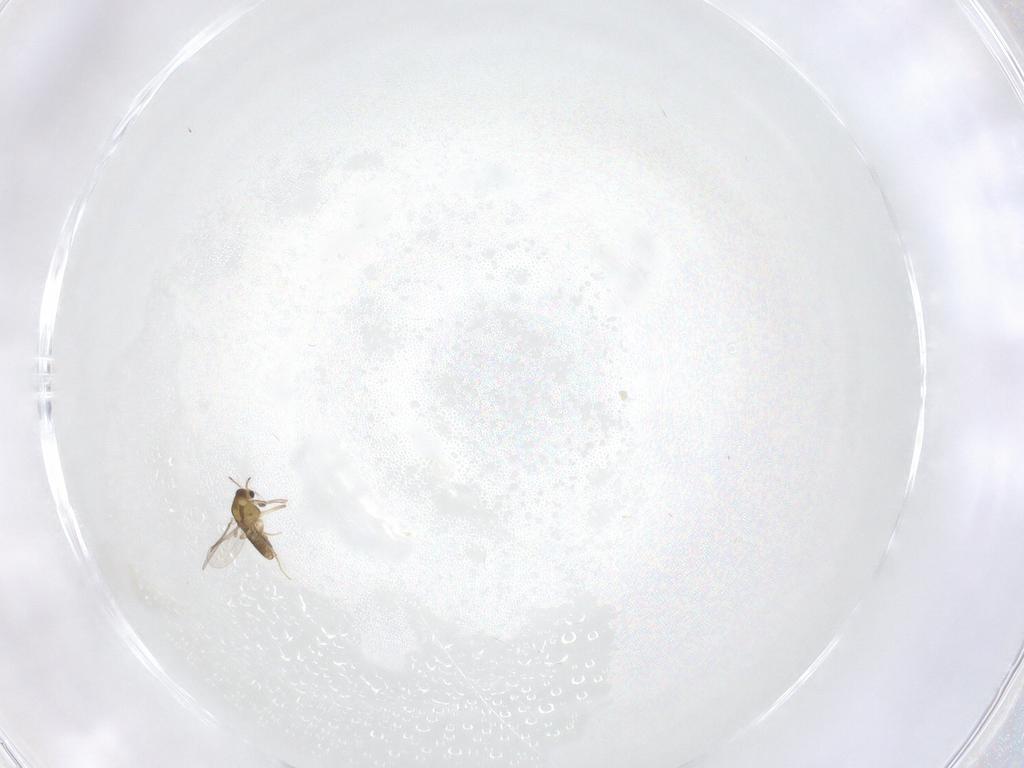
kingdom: Animalia
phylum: Arthropoda
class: Insecta
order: Diptera
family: Chironomidae
